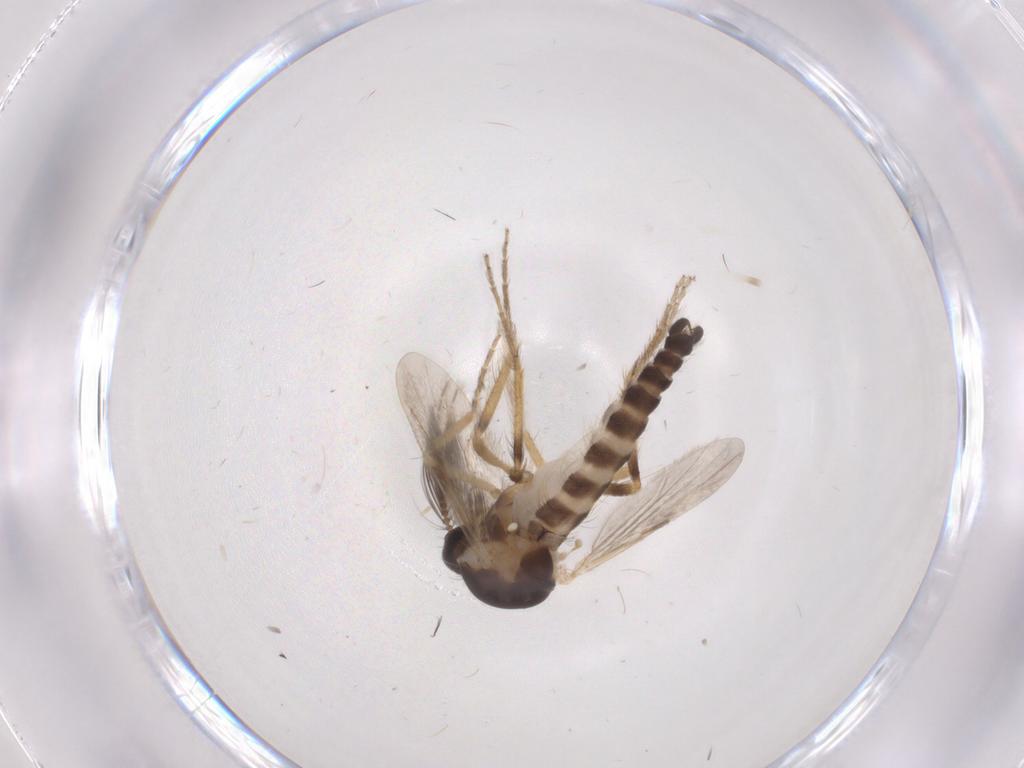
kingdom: Animalia
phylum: Arthropoda
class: Insecta
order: Diptera
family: Ceratopogonidae
